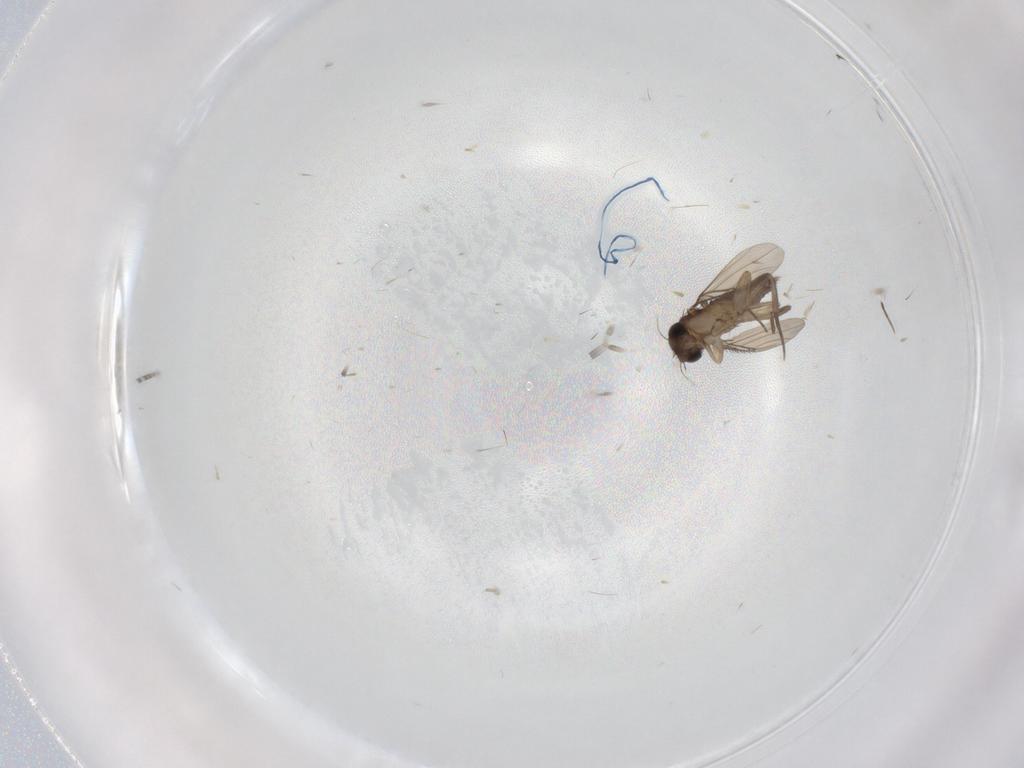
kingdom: Animalia
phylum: Arthropoda
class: Insecta
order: Diptera
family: Phoridae
